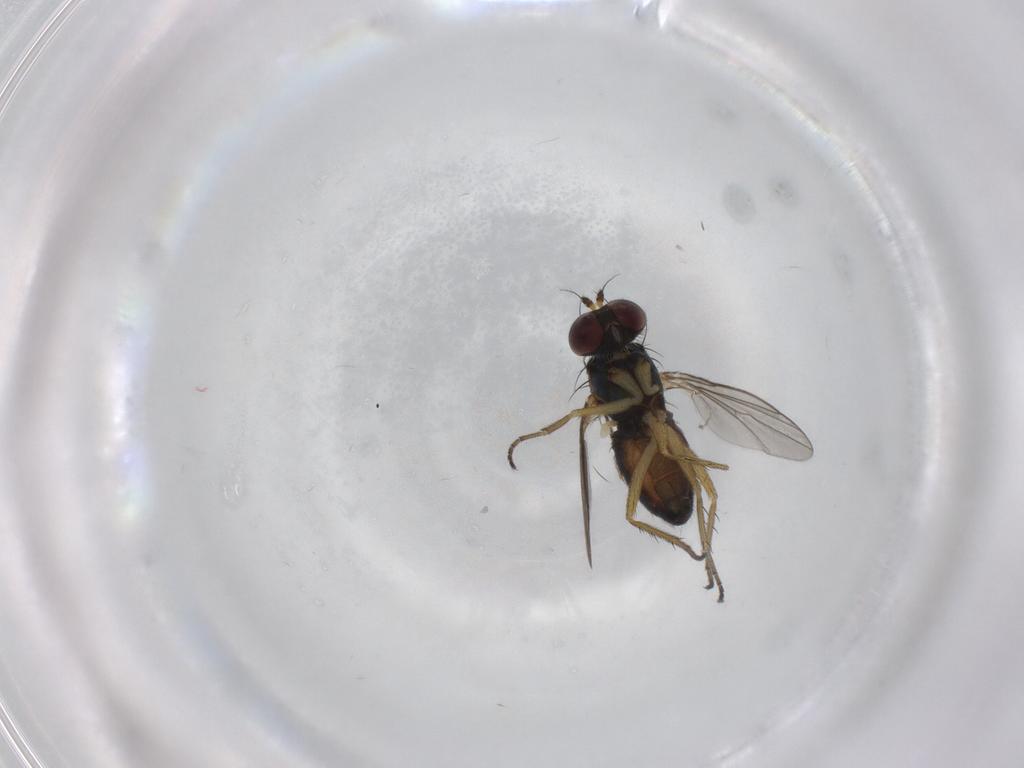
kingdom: Animalia
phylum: Arthropoda
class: Insecta
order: Diptera
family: Dolichopodidae
